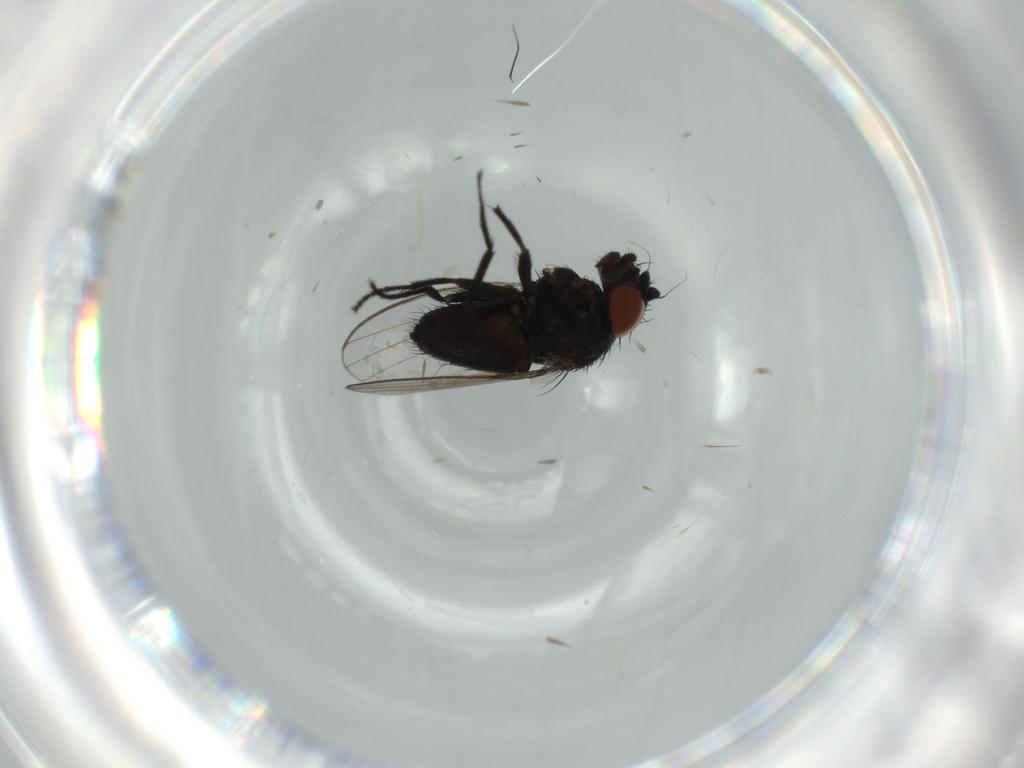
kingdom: Animalia
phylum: Arthropoda
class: Insecta
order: Diptera
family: Milichiidae
